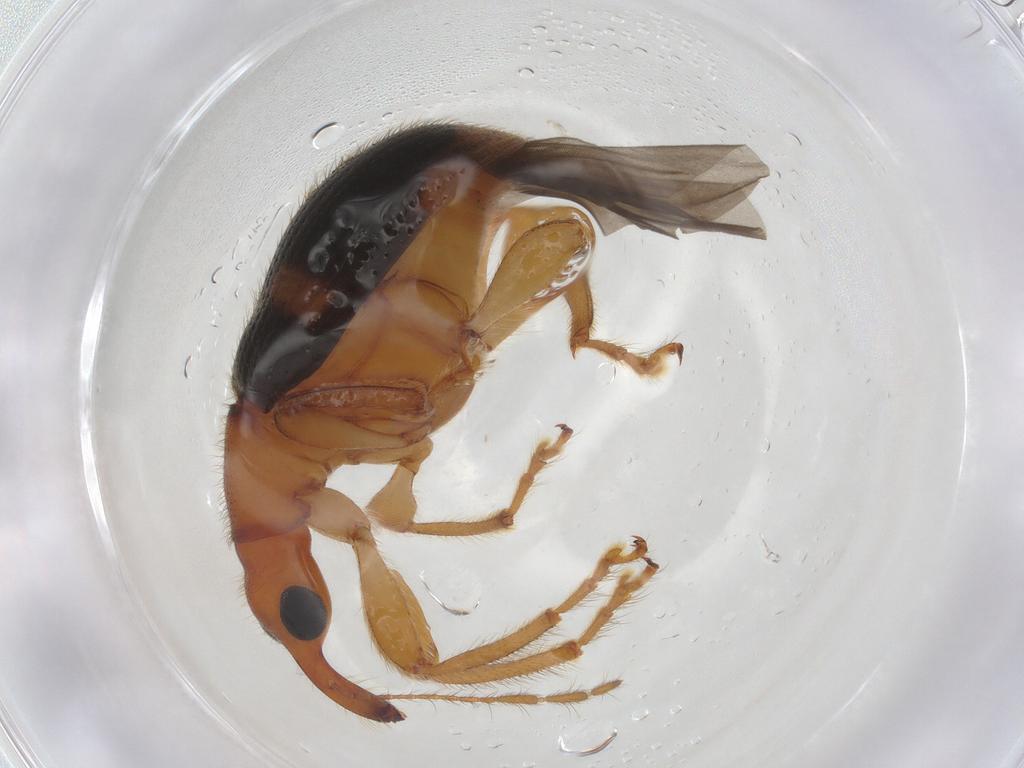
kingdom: Animalia
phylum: Arthropoda
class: Insecta
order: Coleoptera
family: Attelabidae
